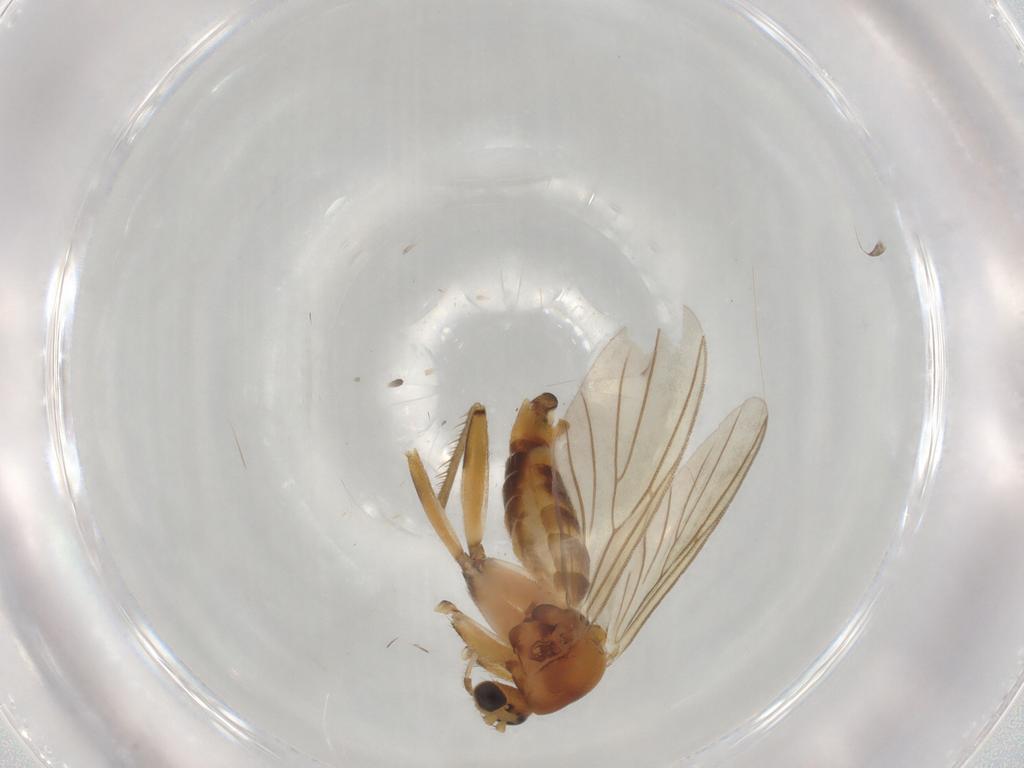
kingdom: Animalia
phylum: Arthropoda
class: Insecta
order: Diptera
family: Mycetophilidae
